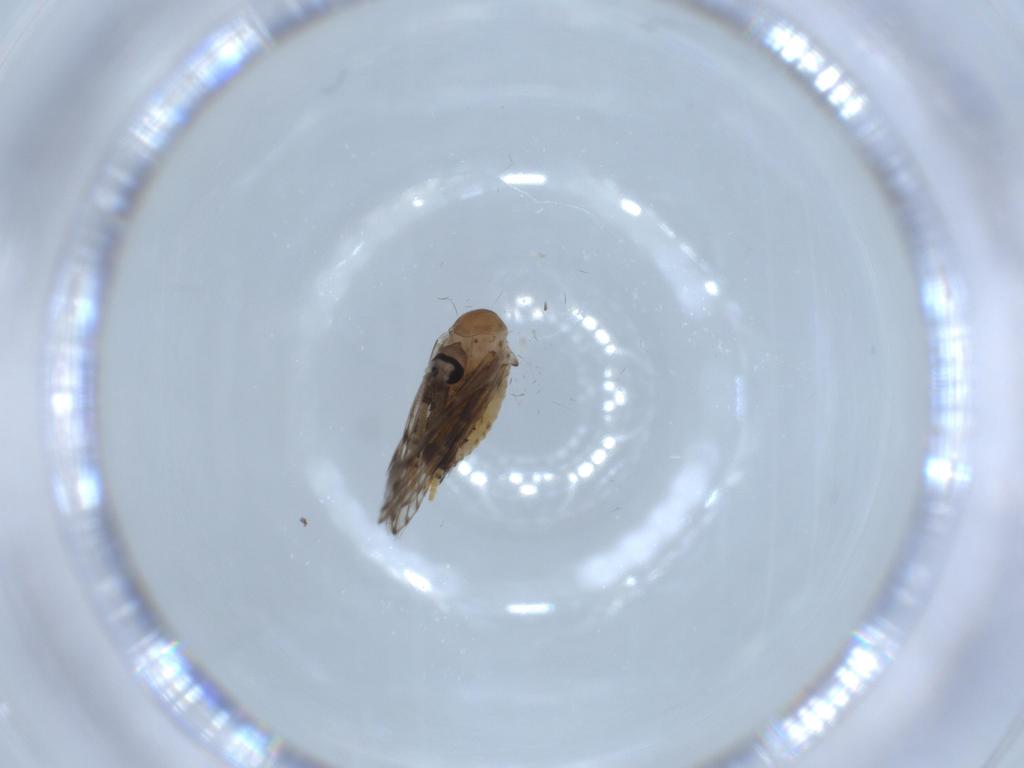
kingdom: Animalia
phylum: Arthropoda
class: Insecta
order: Diptera
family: Psychodidae
